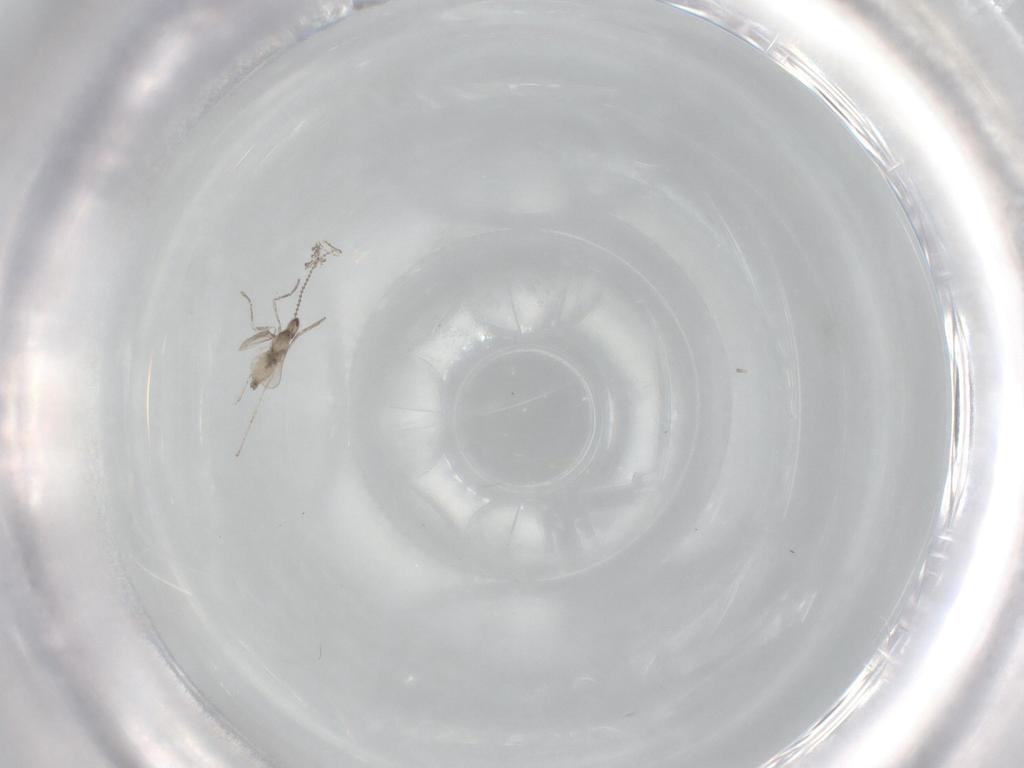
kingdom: Animalia
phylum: Arthropoda
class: Insecta
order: Diptera
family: Cecidomyiidae
